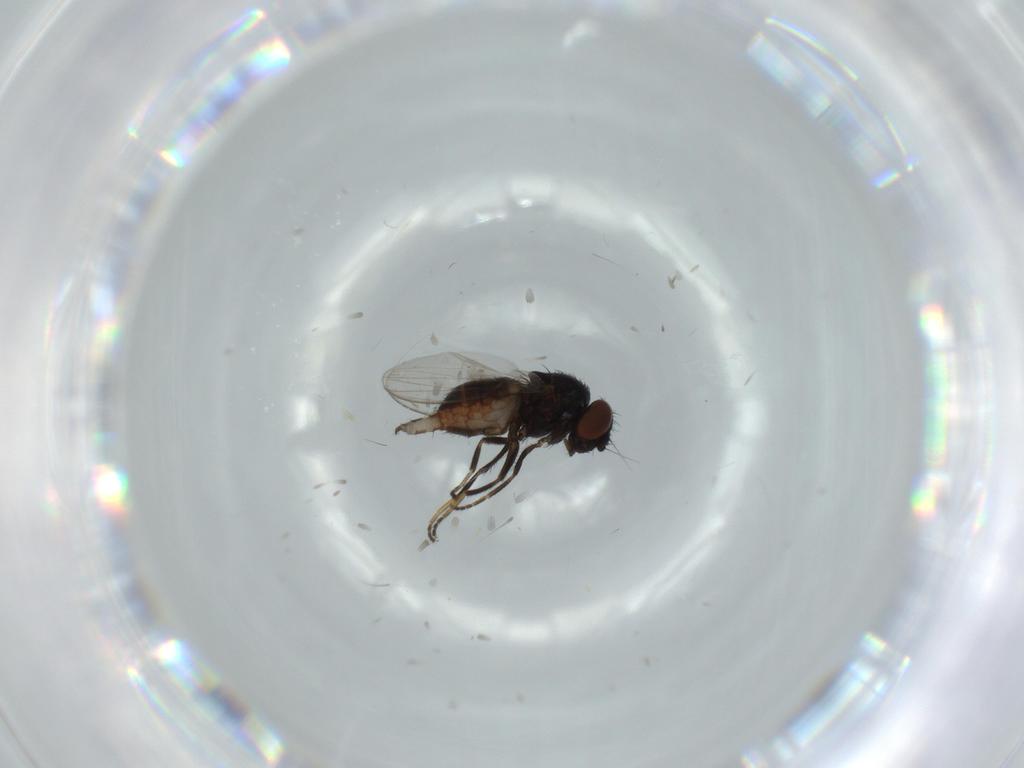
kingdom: Animalia
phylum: Arthropoda
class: Insecta
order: Diptera
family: Milichiidae
